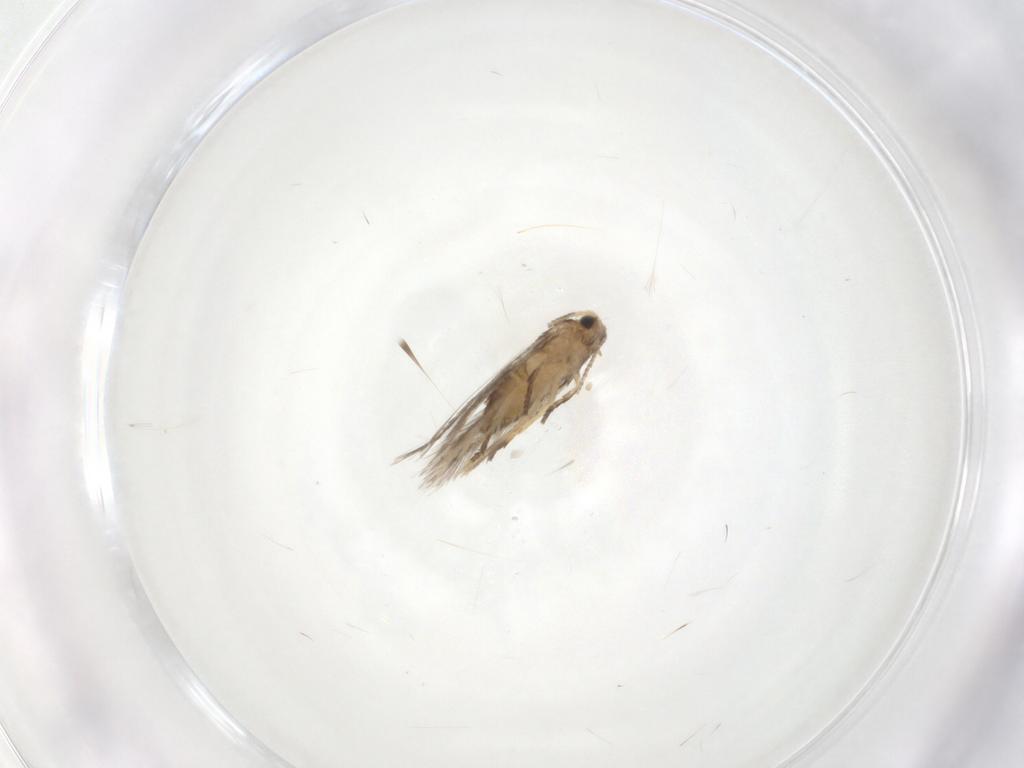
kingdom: Animalia
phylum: Arthropoda
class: Insecta
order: Lepidoptera
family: Nepticulidae
